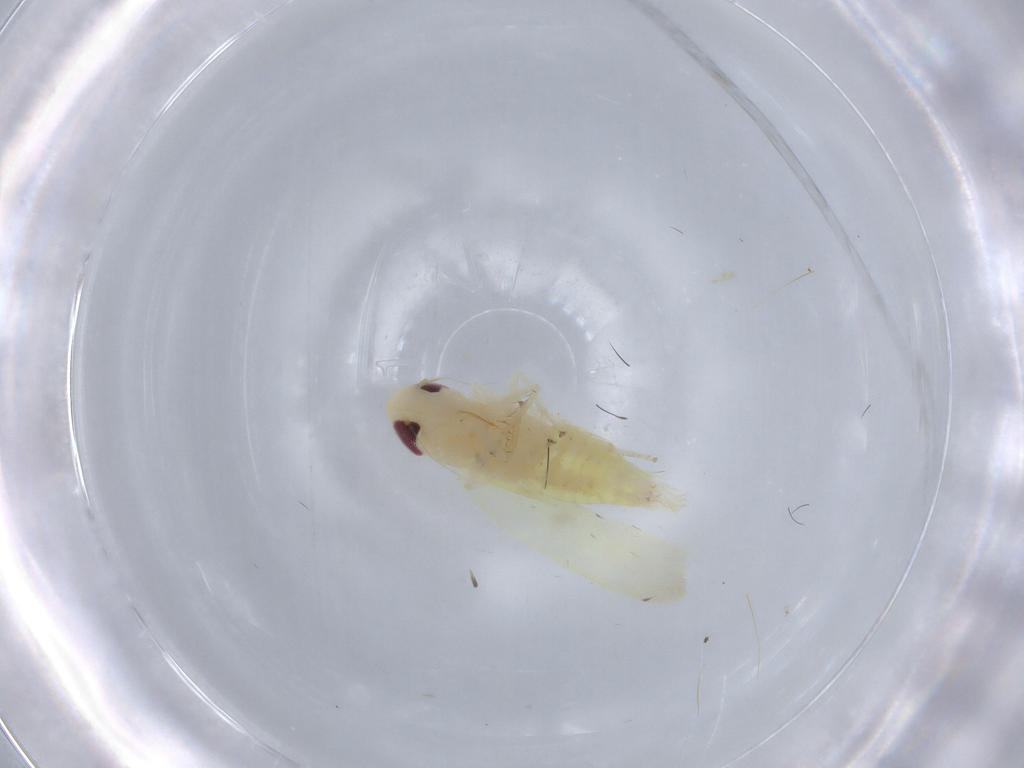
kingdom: Animalia
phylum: Arthropoda
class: Insecta
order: Hemiptera
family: Cicadellidae
